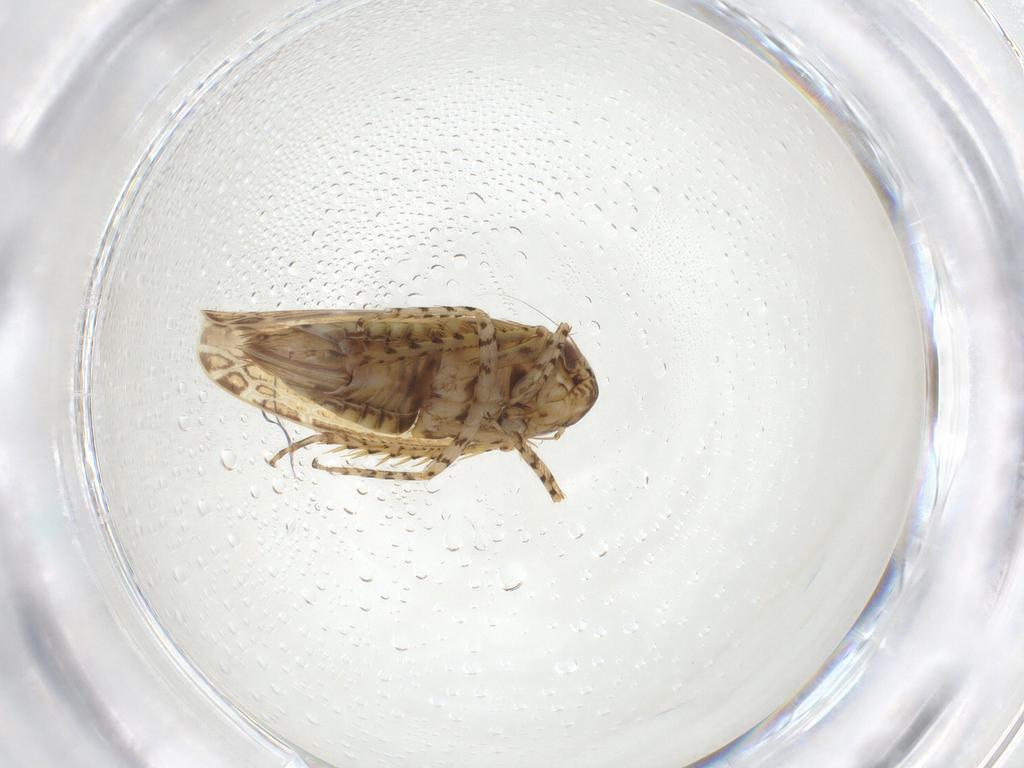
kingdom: Animalia
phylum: Arthropoda
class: Insecta
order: Hemiptera
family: Cicadellidae
